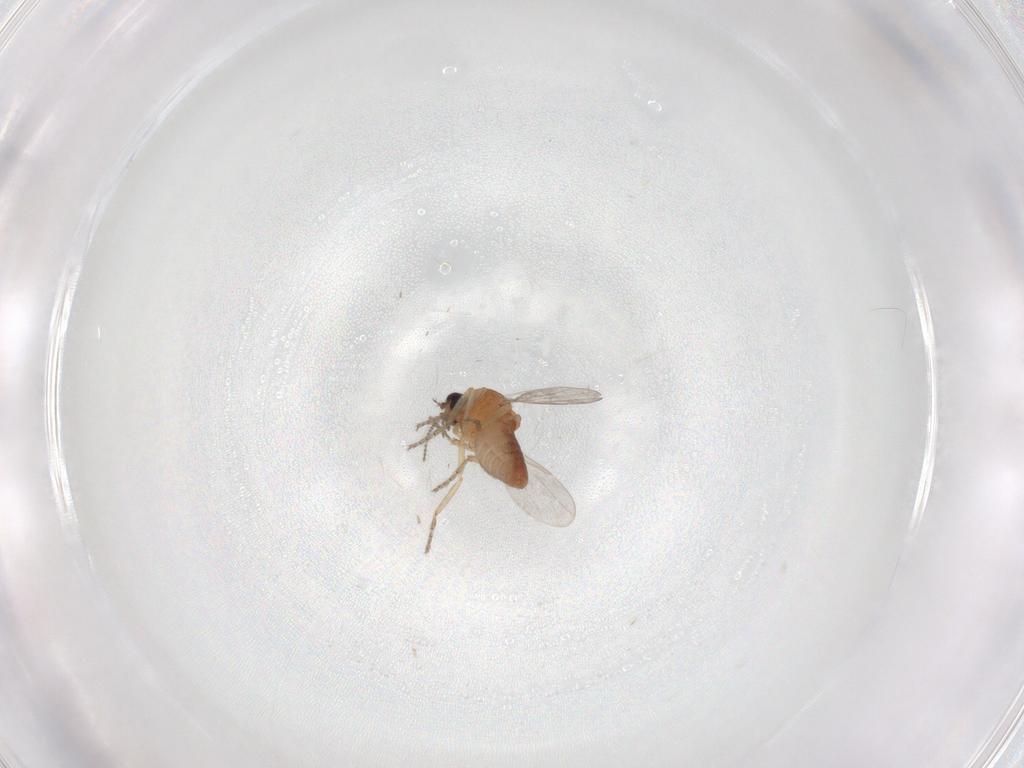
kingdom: Animalia
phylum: Arthropoda
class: Insecta
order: Diptera
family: Ceratopogonidae
